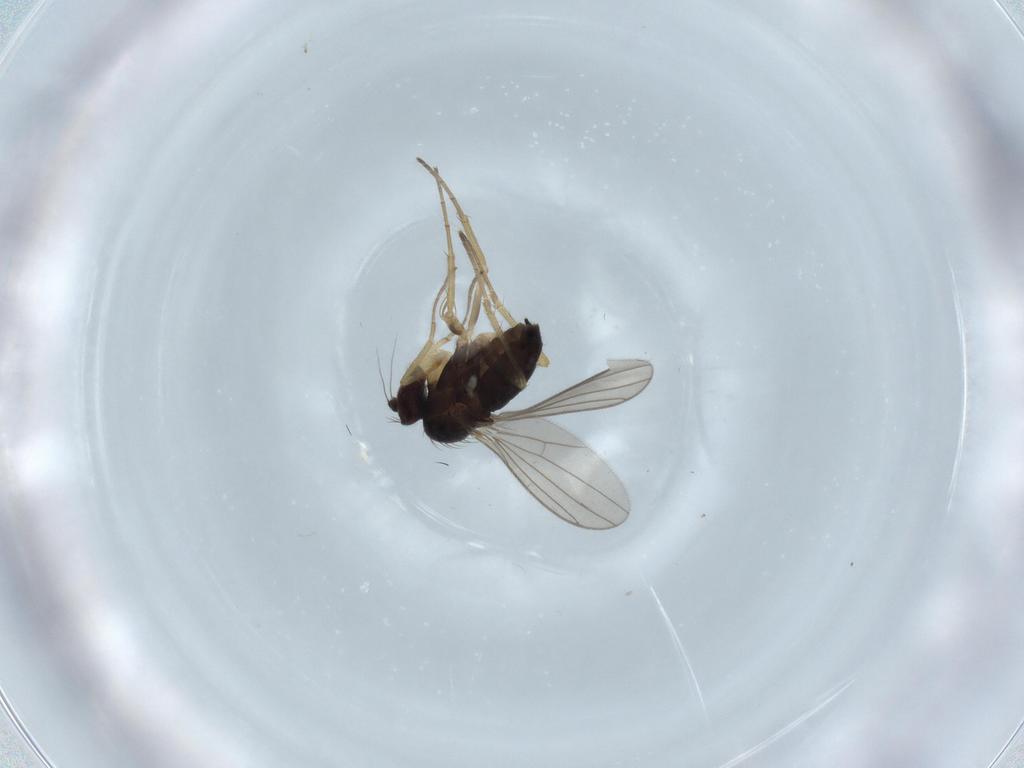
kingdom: Animalia
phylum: Arthropoda
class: Insecta
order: Diptera
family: Dolichopodidae
